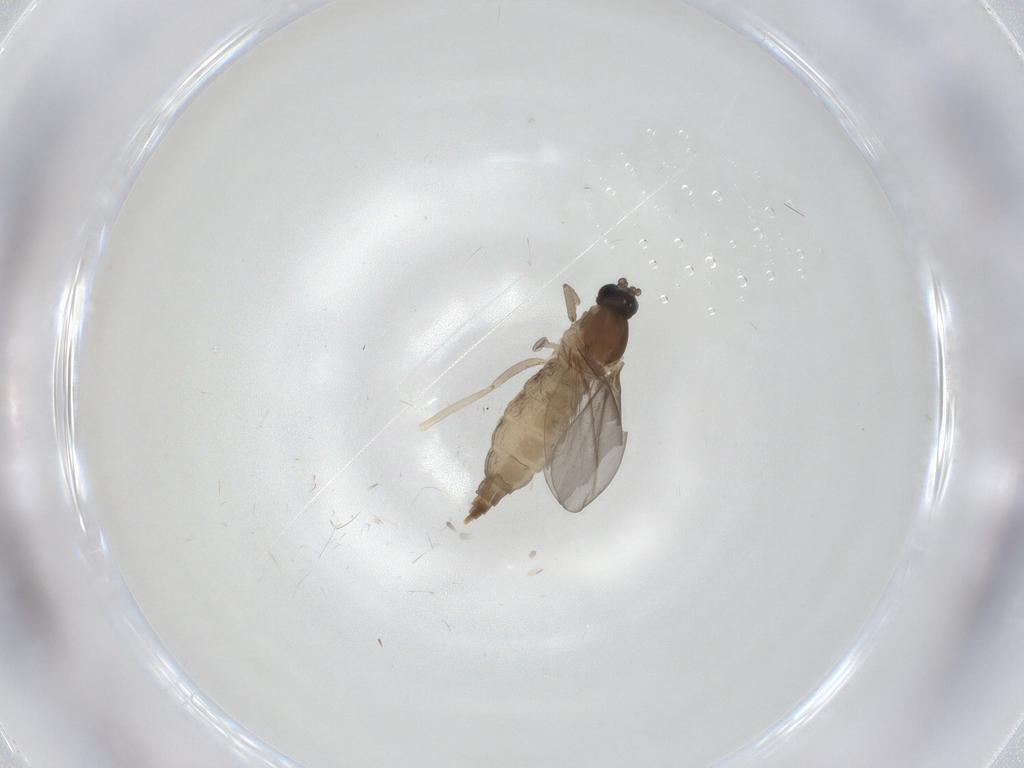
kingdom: Animalia
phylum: Arthropoda
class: Insecta
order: Diptera
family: Cecidomyiidae
